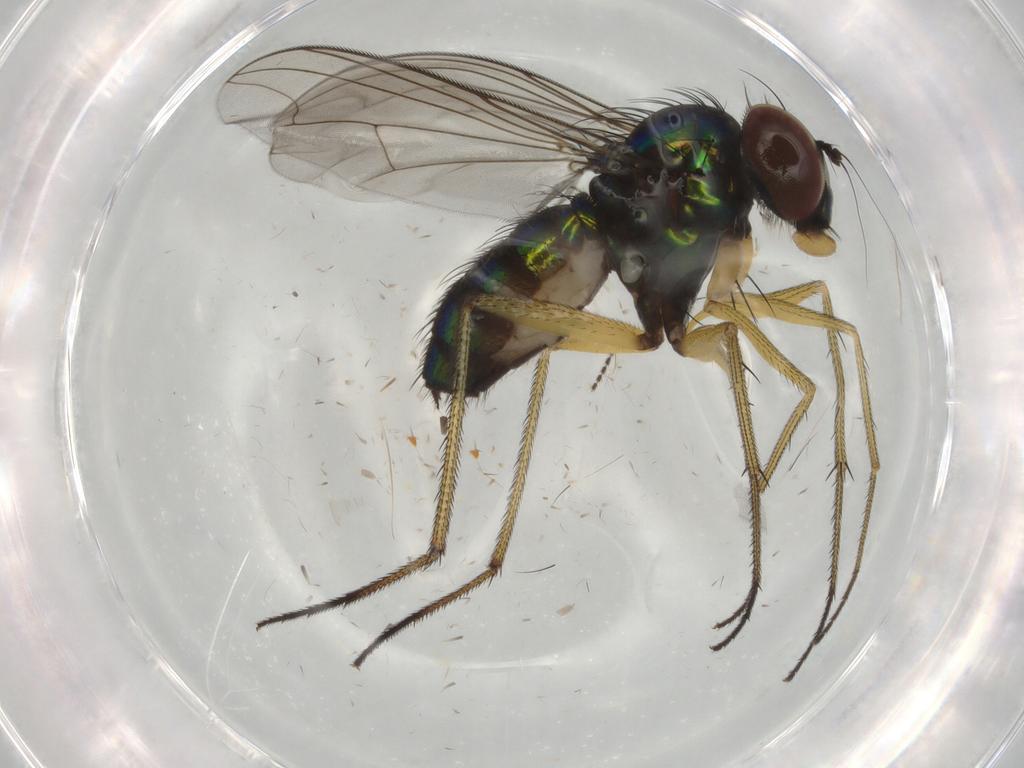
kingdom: Animalia
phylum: Arthropoda
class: Insecta
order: Diptera
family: Dolichopodidae
